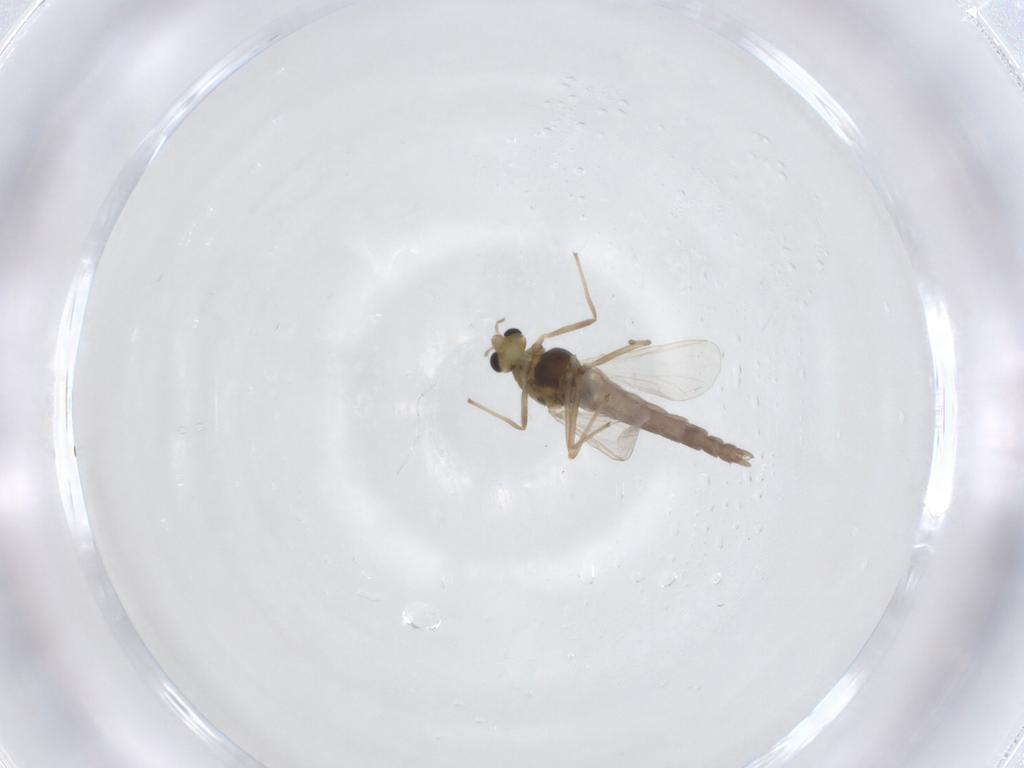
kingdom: Animalia
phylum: Arthropoda
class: Insecta
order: Diptera
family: Chironomidae
